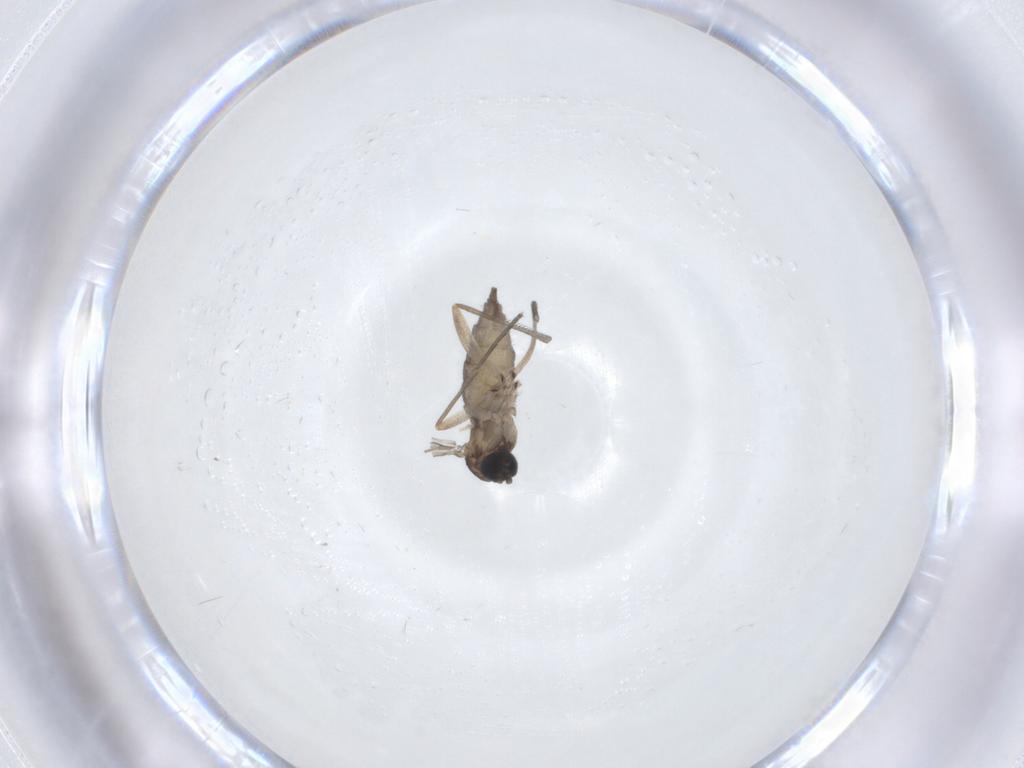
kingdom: Animalia
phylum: Arthropoda
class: Insecta
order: Diptera
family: Sciaridae
